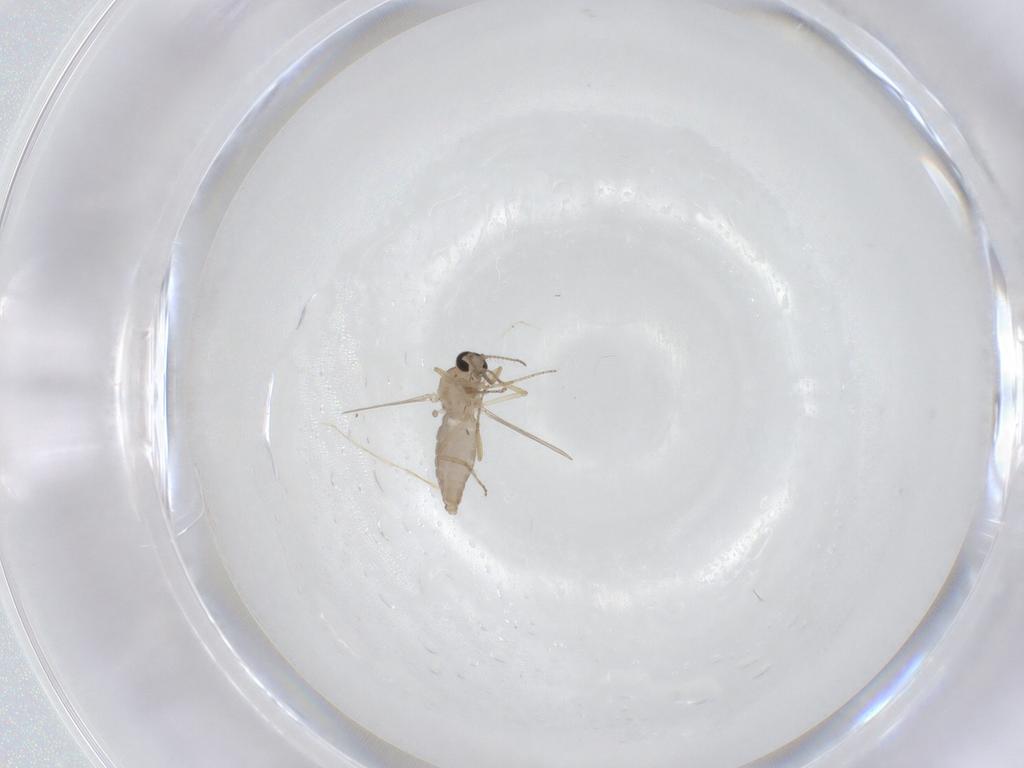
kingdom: Animalia
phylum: Arthropoda
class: Insecta
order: Diptera
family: Ceratopogonidae
